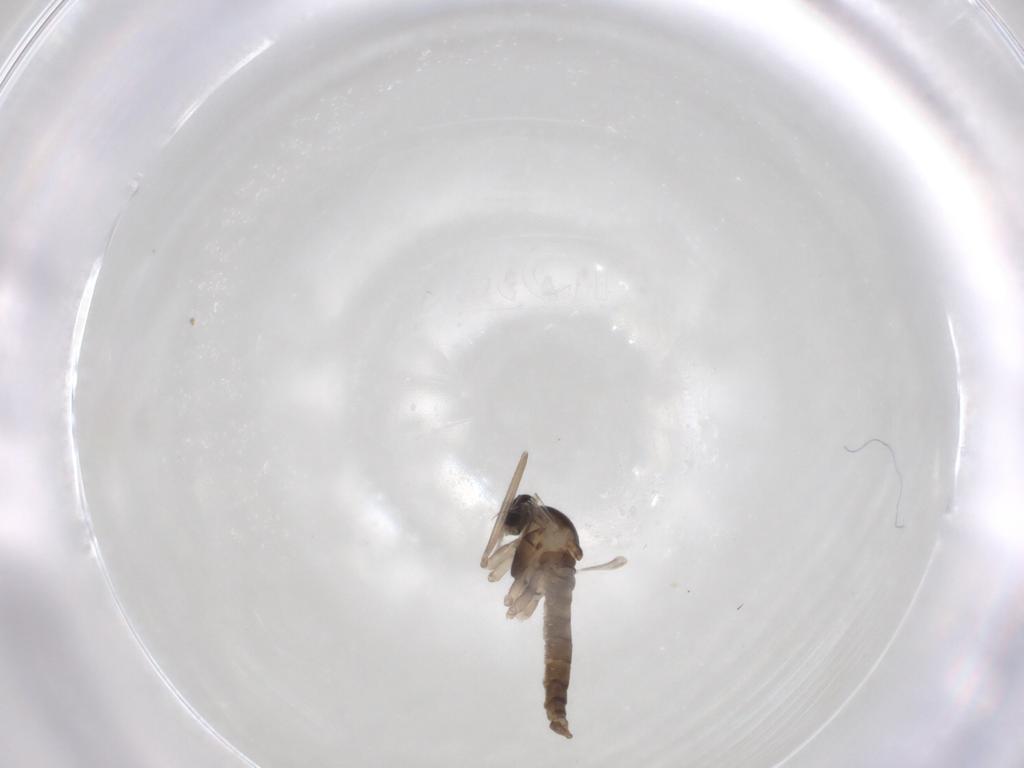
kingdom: Animalia
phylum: Arthropoda
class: Insecta
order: Diptera
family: Cecidomyiidae
